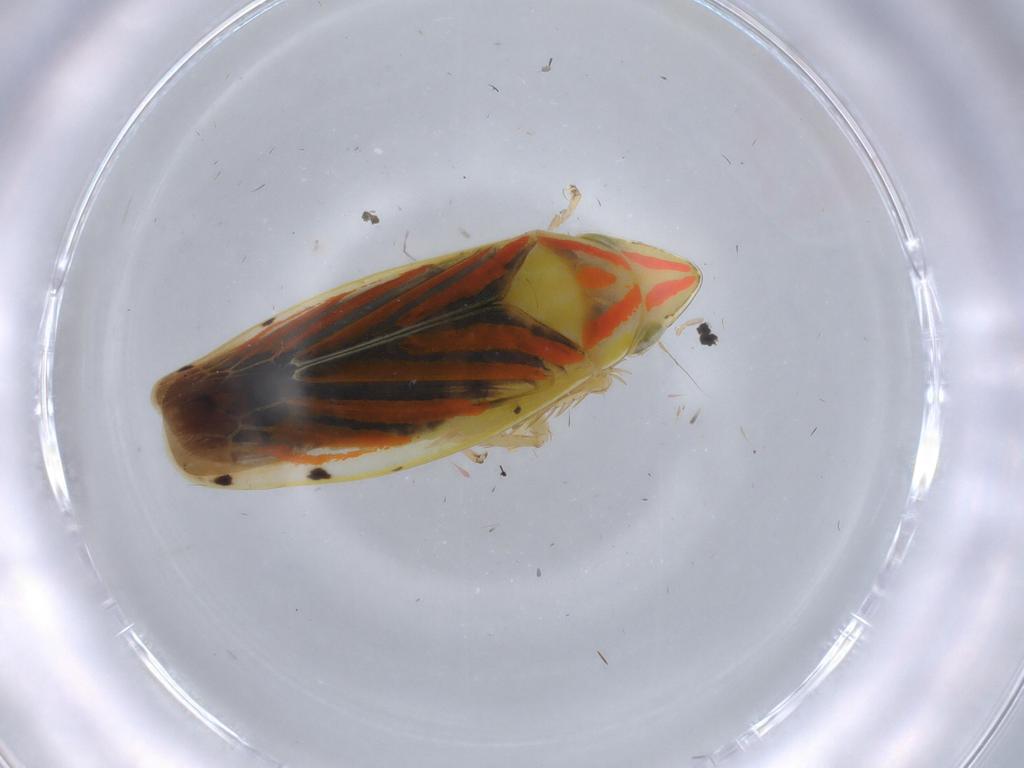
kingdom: Animalia
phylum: Arthropoda
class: Insecta
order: Hemiptera
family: Cicadellidae
